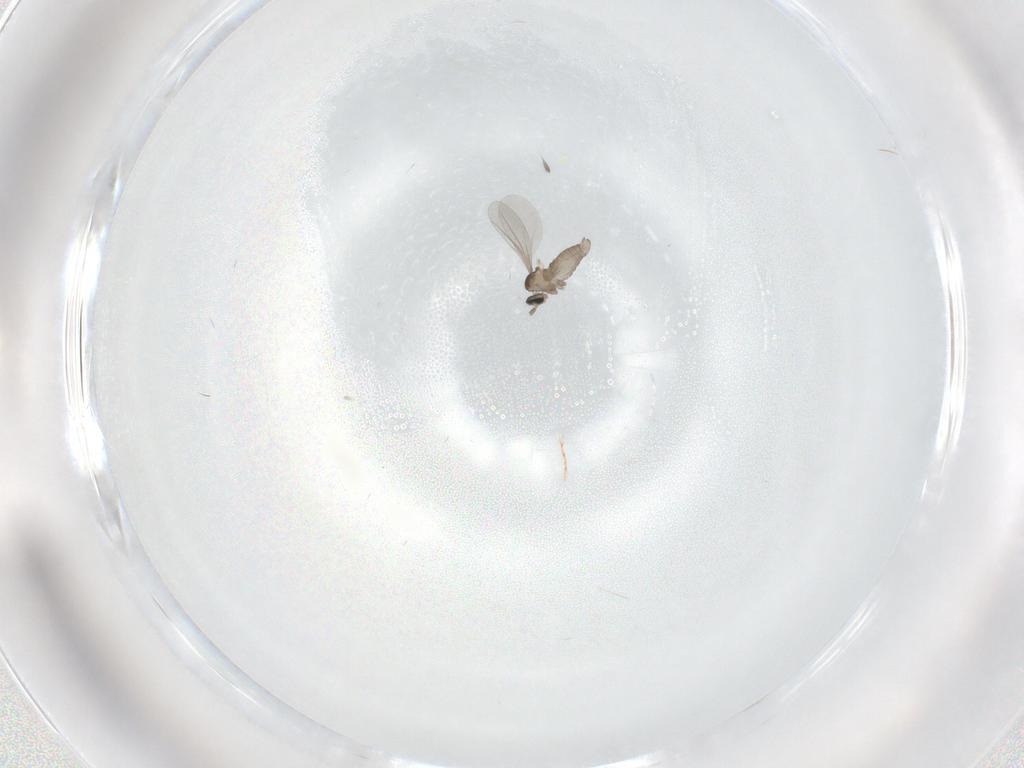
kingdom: Animalia
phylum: Arthropoda
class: Insecta
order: Diptera
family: Cecidomyiidae
